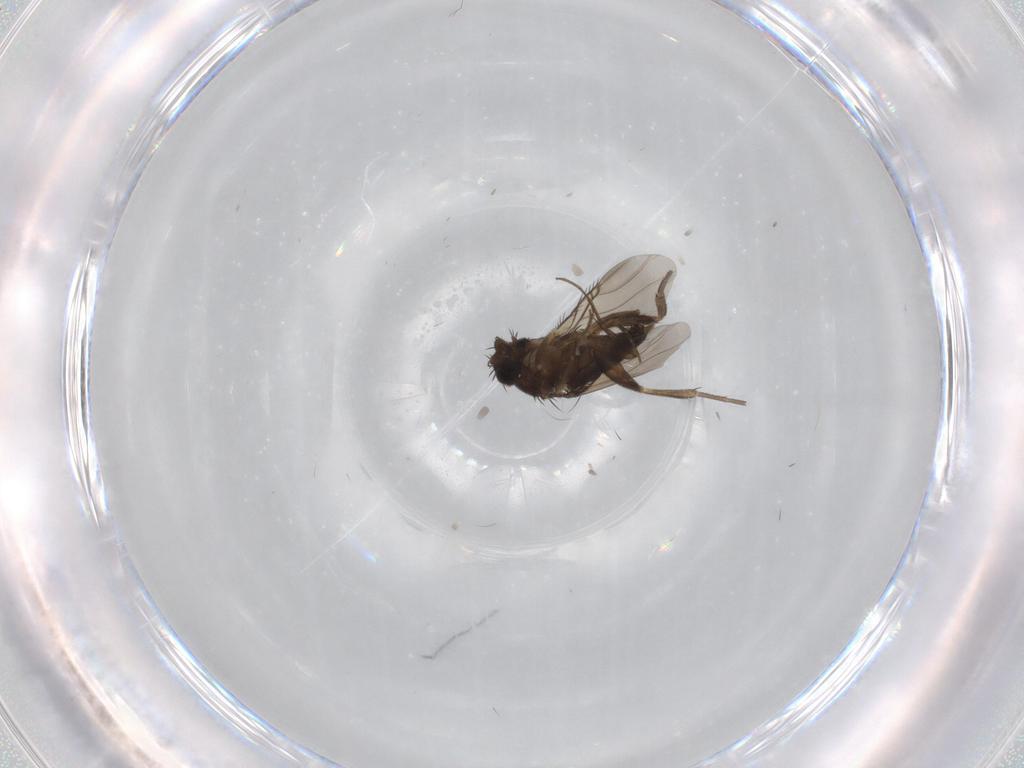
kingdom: Animalia
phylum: Arthropoda
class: Insecta
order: Diptera
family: Phoridae
